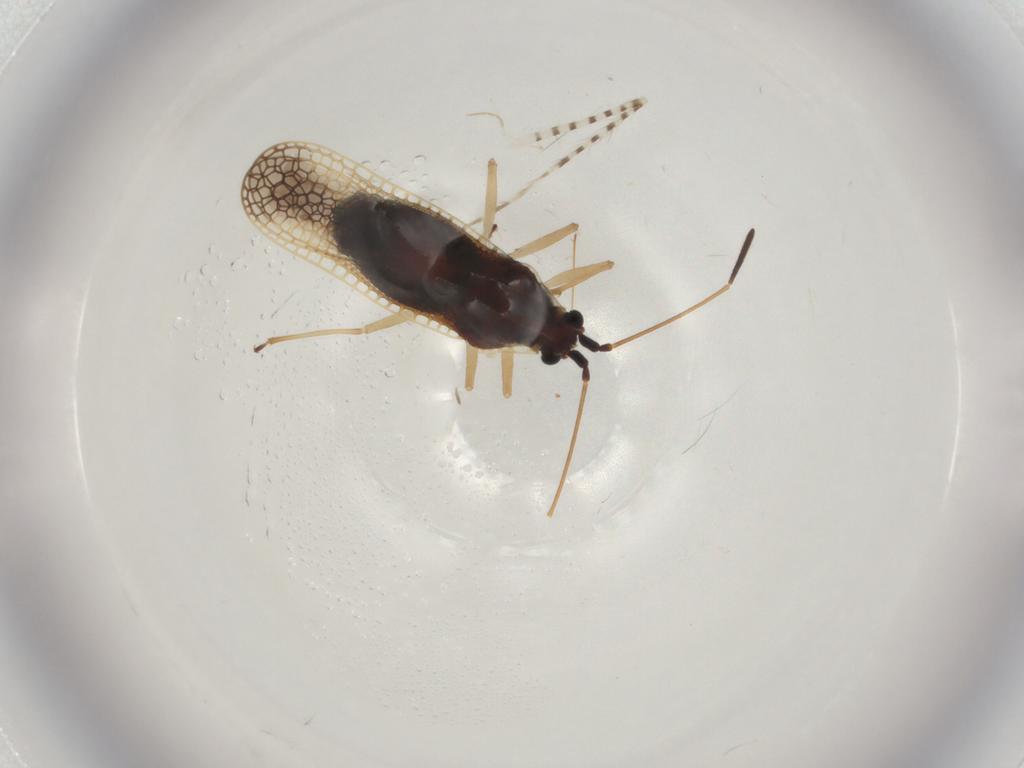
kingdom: Animalia
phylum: Arthropoda
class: Insecta
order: Hemiptera
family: Tingidae
